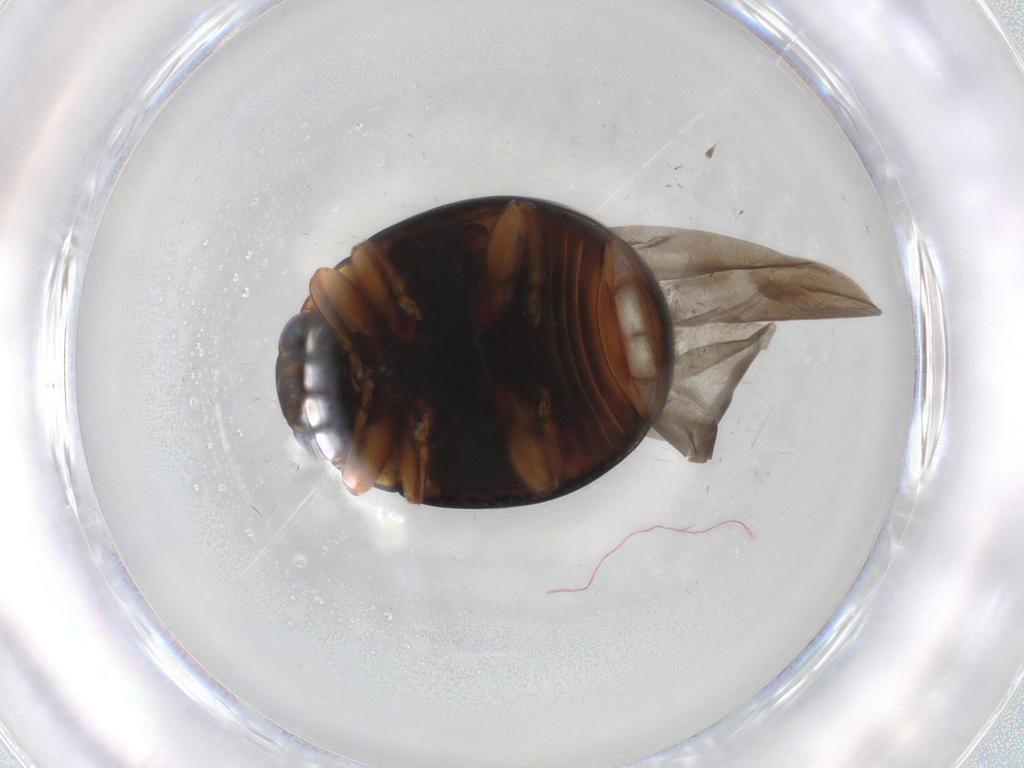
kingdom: Animalia
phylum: Arthropoda
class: Insecta
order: Coleoptera
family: Coccinellidae
